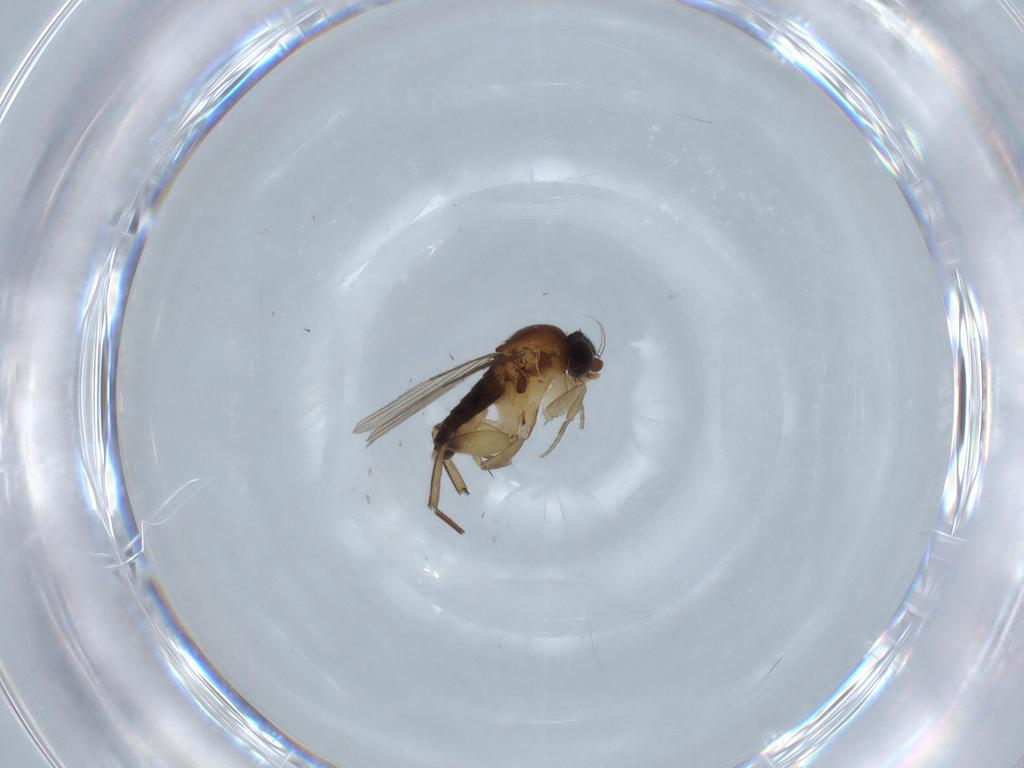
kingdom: Animalia
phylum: Arthropoda
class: Insecta
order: Diptera
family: Phoridae
